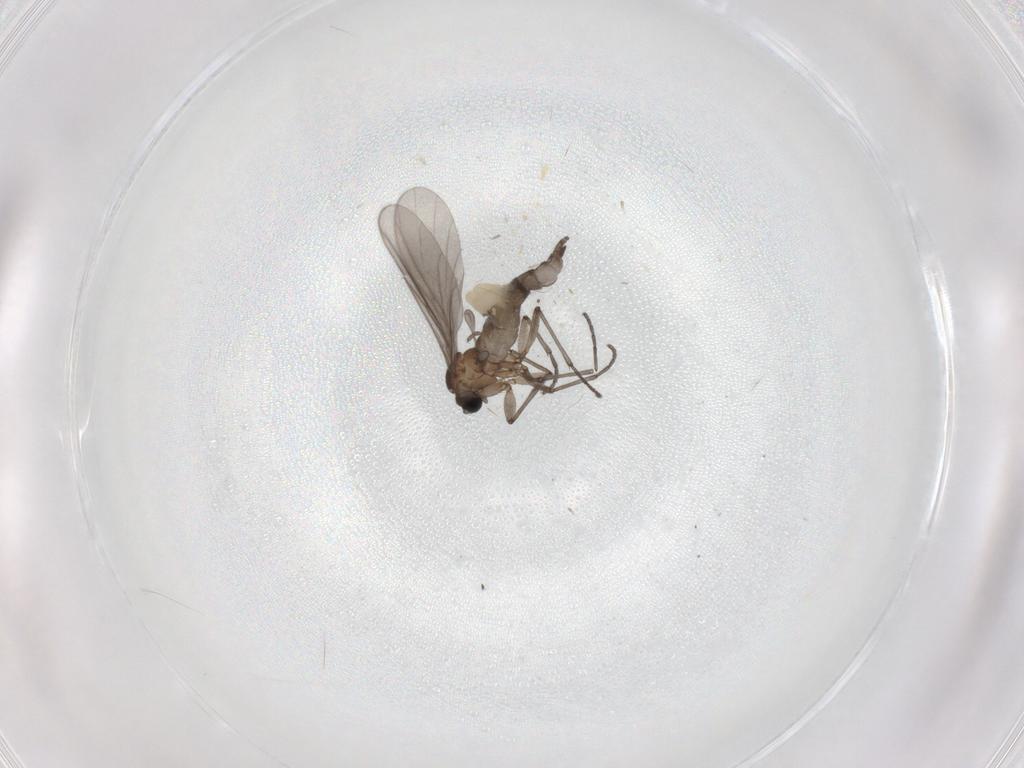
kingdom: Animalia
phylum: Arthropoda
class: Insecta
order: Diptera
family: Sciaridae
